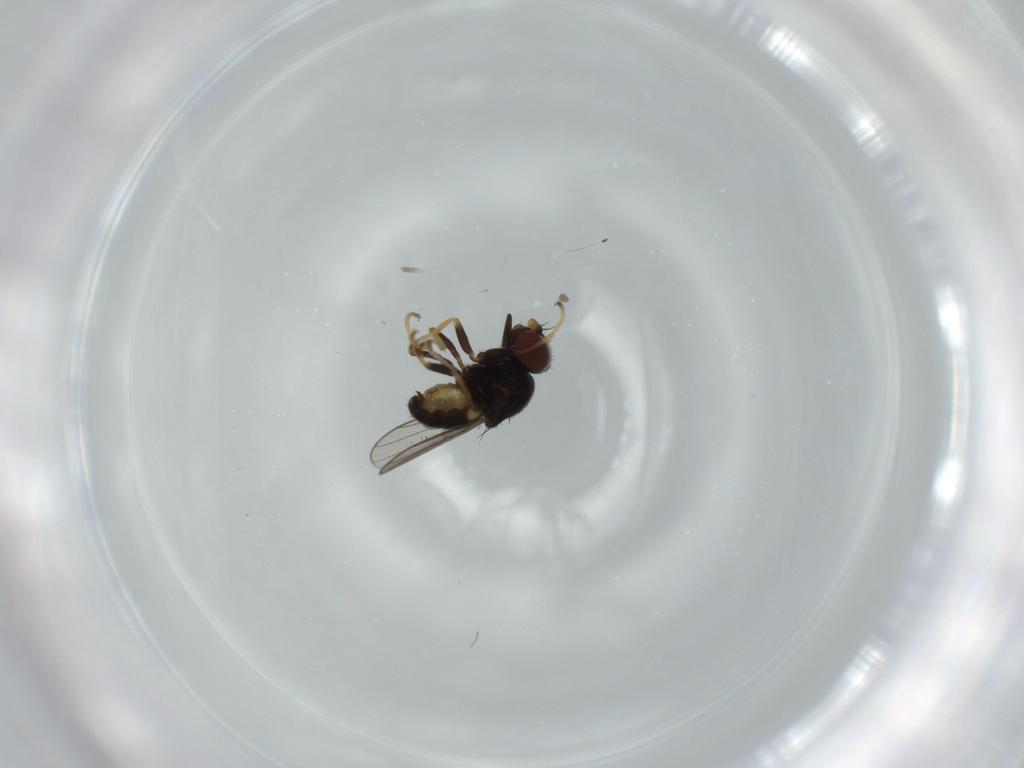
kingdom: Animalia
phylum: Arthropoda
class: Insecta
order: Diptera
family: Chloropidae
